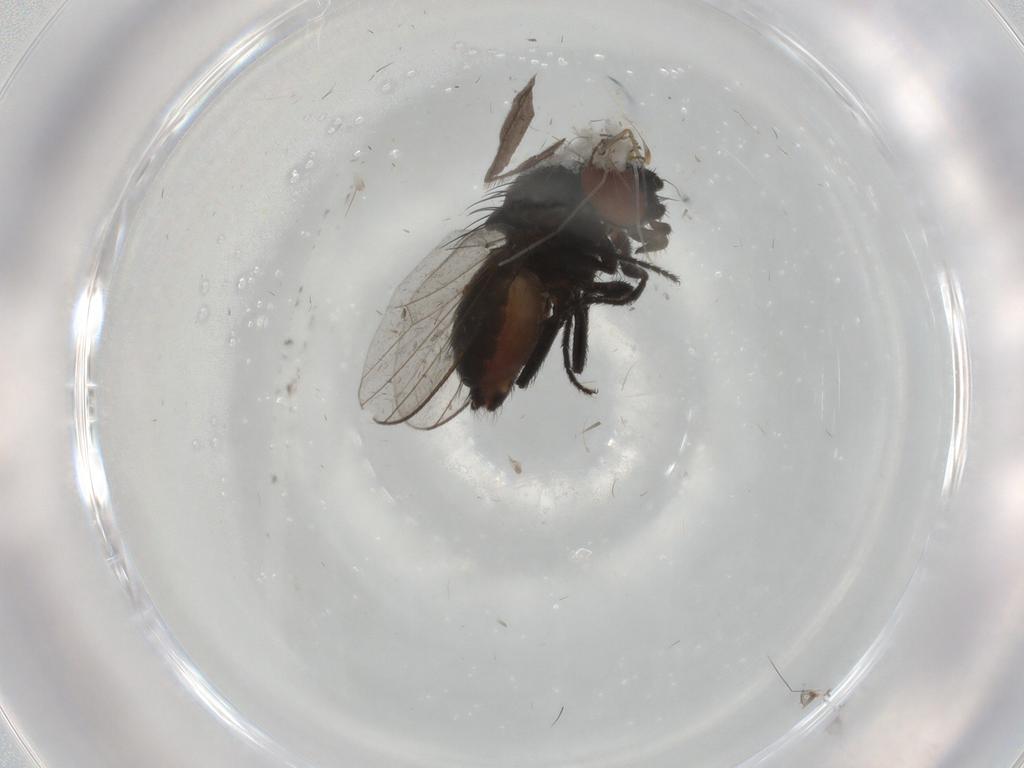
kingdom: Animalia
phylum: Arthropoda
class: Insecta
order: Diptera
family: Milichiidae
